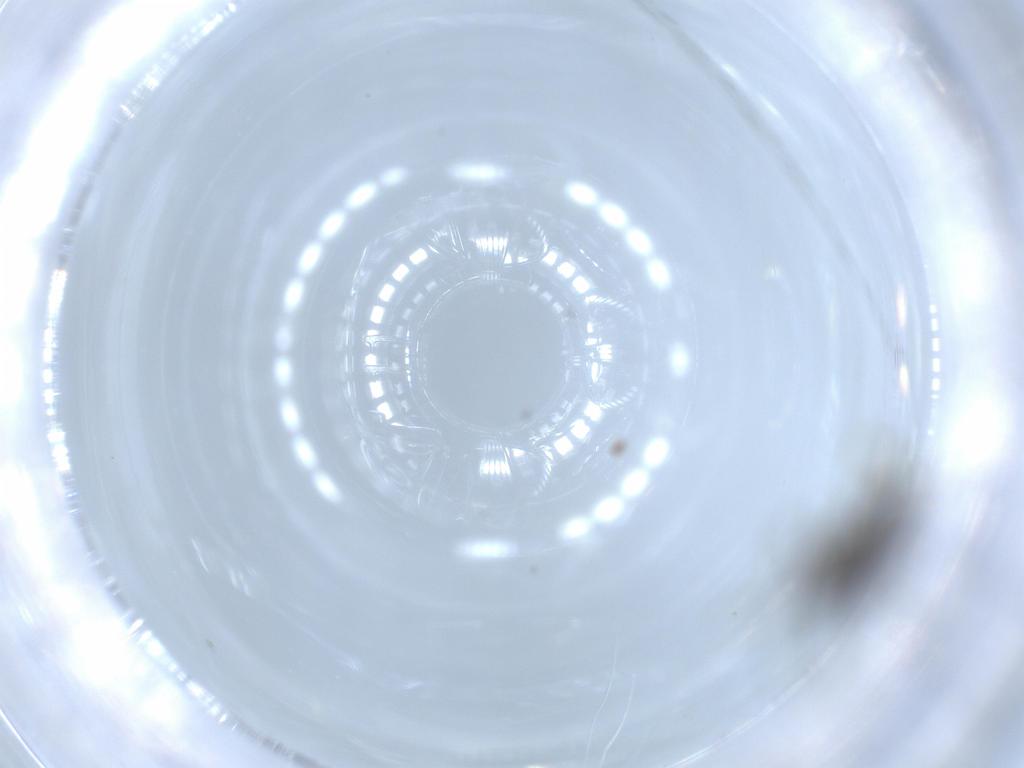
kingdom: Animalia
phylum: Arthropoda
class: Insecta
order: Diptera
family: Sciaridae
